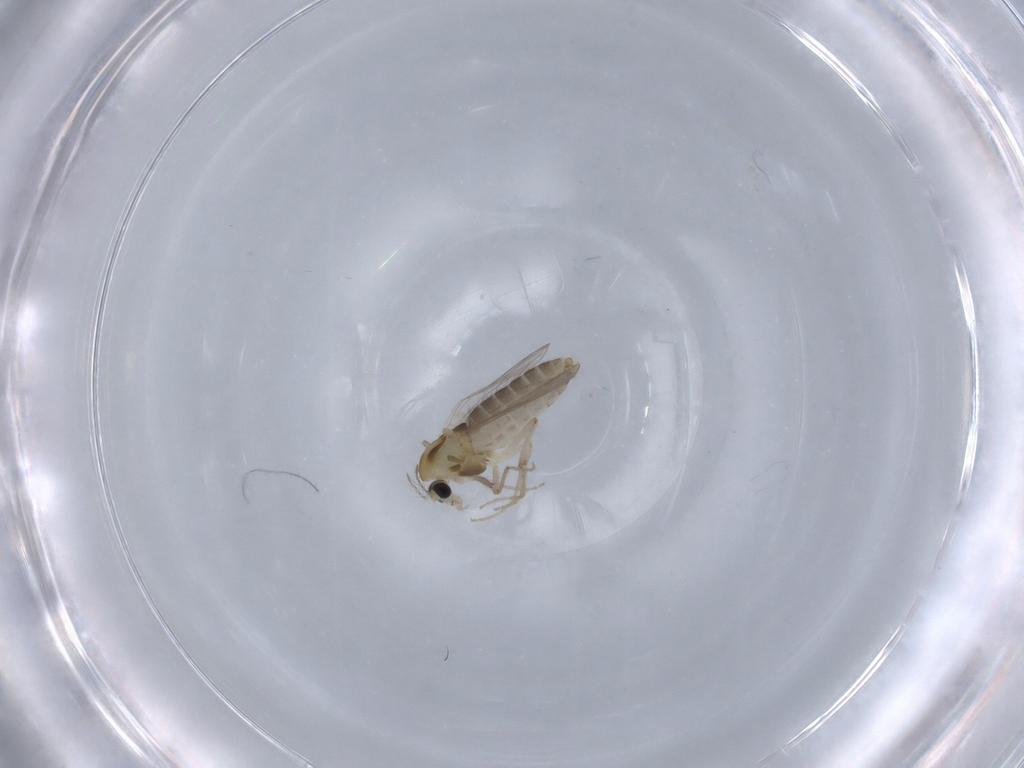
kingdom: Animalia
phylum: Arthropoda
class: Insecta
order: Diptera
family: Chironomidae
